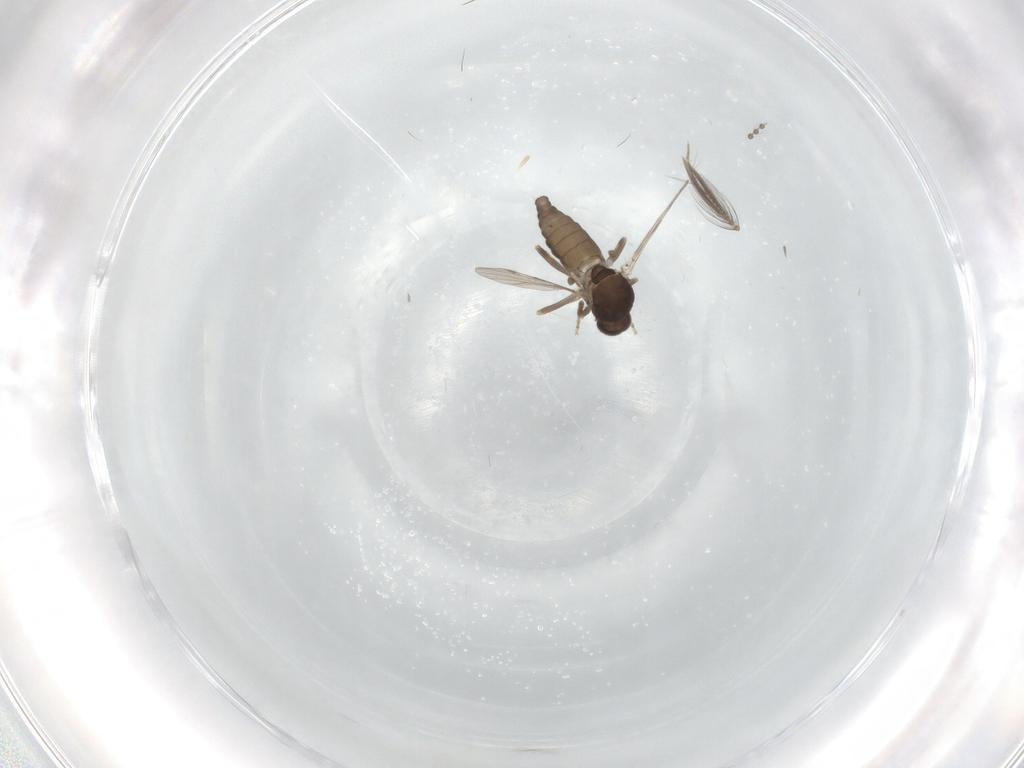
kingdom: Animalia
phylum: Arthropoda
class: Insecta
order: Diptera
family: Ceratopogonidae
